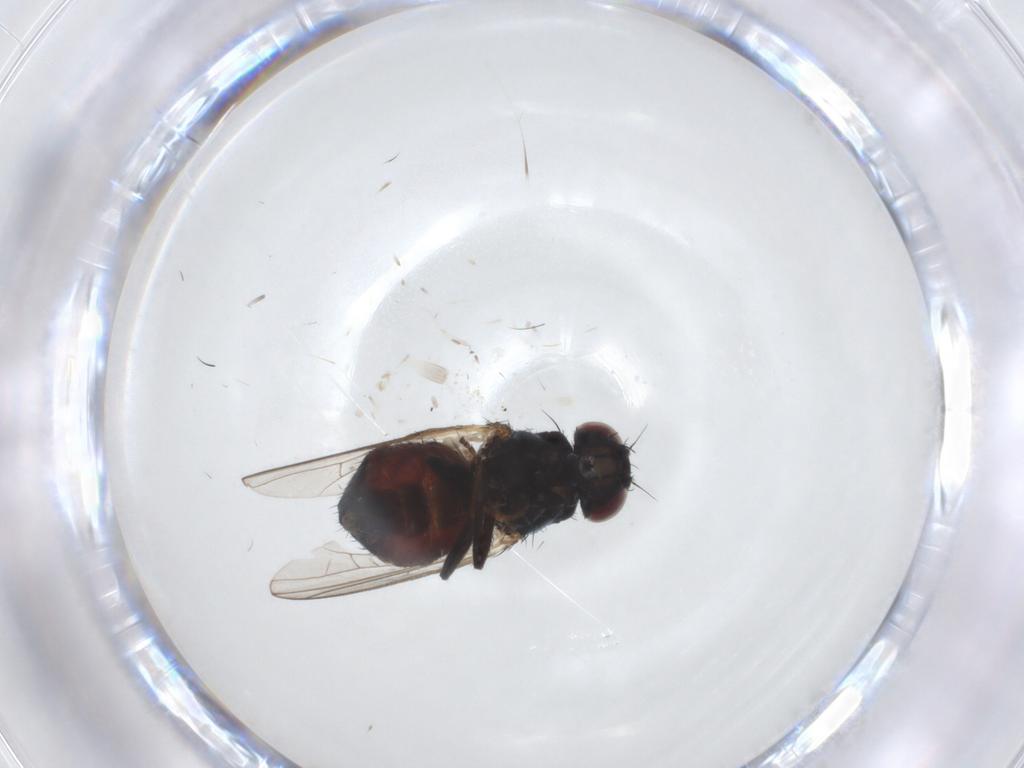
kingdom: Animalia
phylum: Arthropoda
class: Insecta
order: Diptera
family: Carnidae
